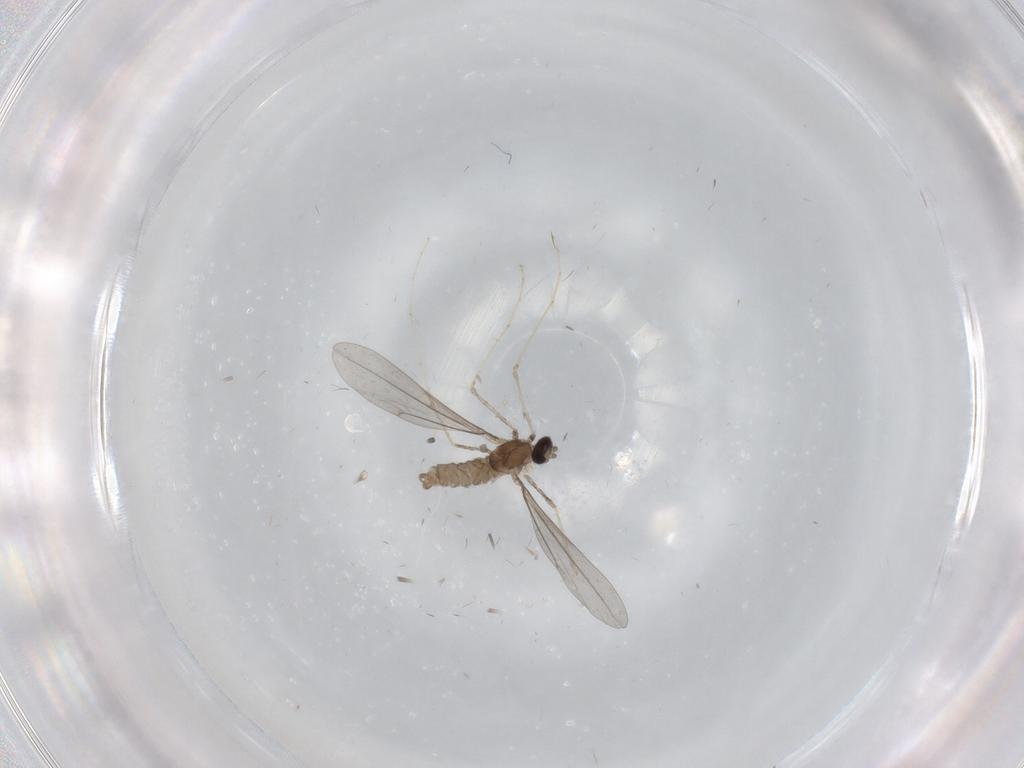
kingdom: Animalia
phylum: Arthropoda
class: Insecta
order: Diptera
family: Cecidomyiidae
